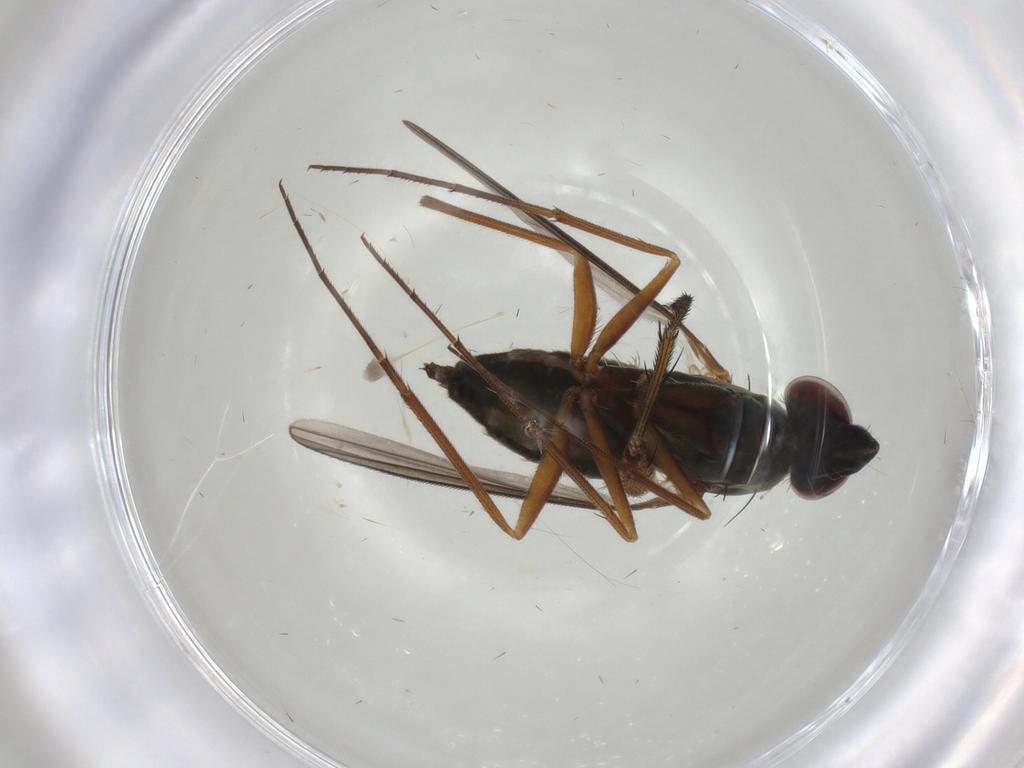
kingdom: Animalia
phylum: Arthropoda
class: Insecta
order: Diptera
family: Dolichopodidae
